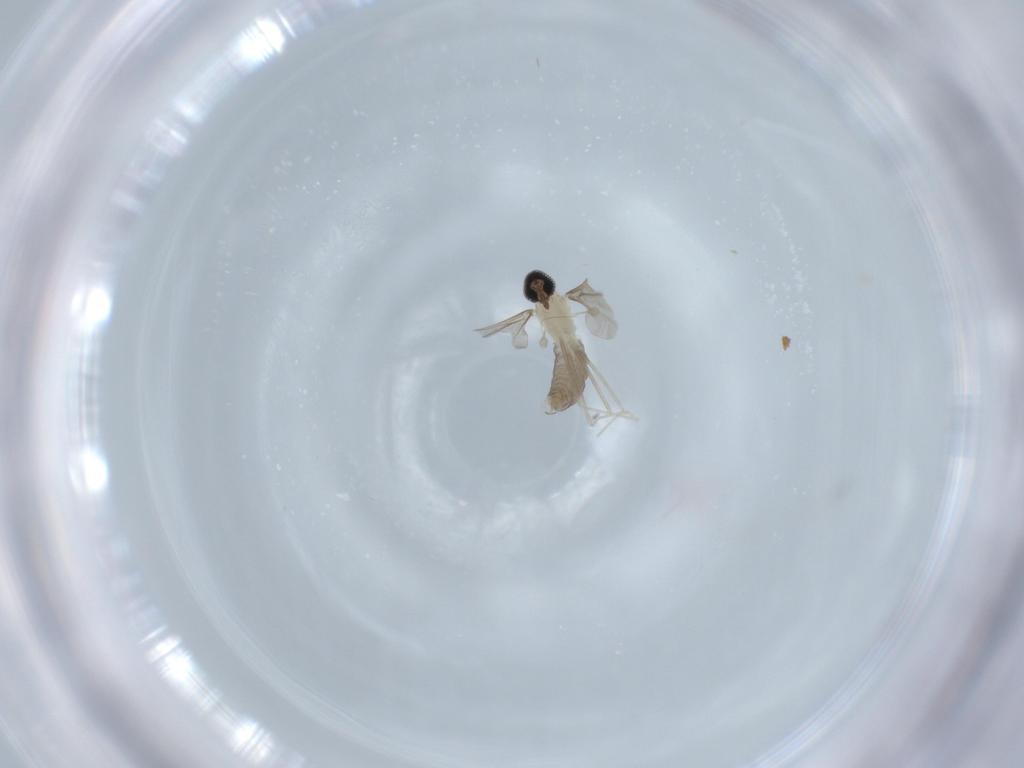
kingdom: Animalia
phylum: Arthropoda
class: Insecta
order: Diptera
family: Cecidomyiidae
